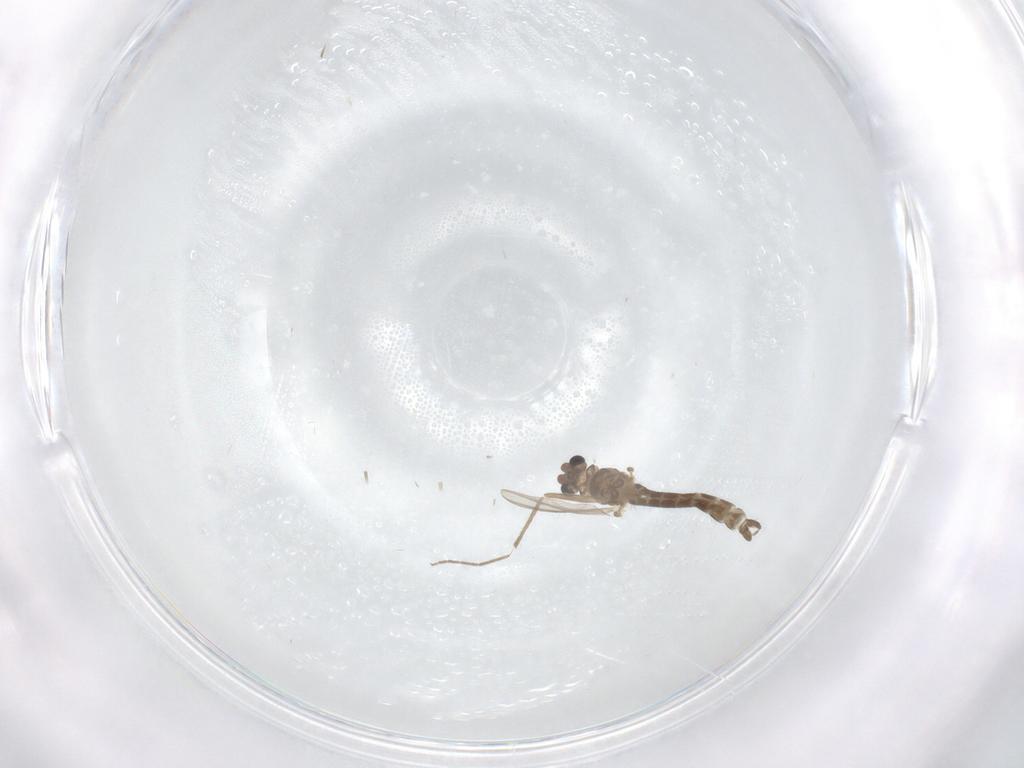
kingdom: Animalia
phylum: Arthropoda
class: Insecta
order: Diptera
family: Chironomidae
